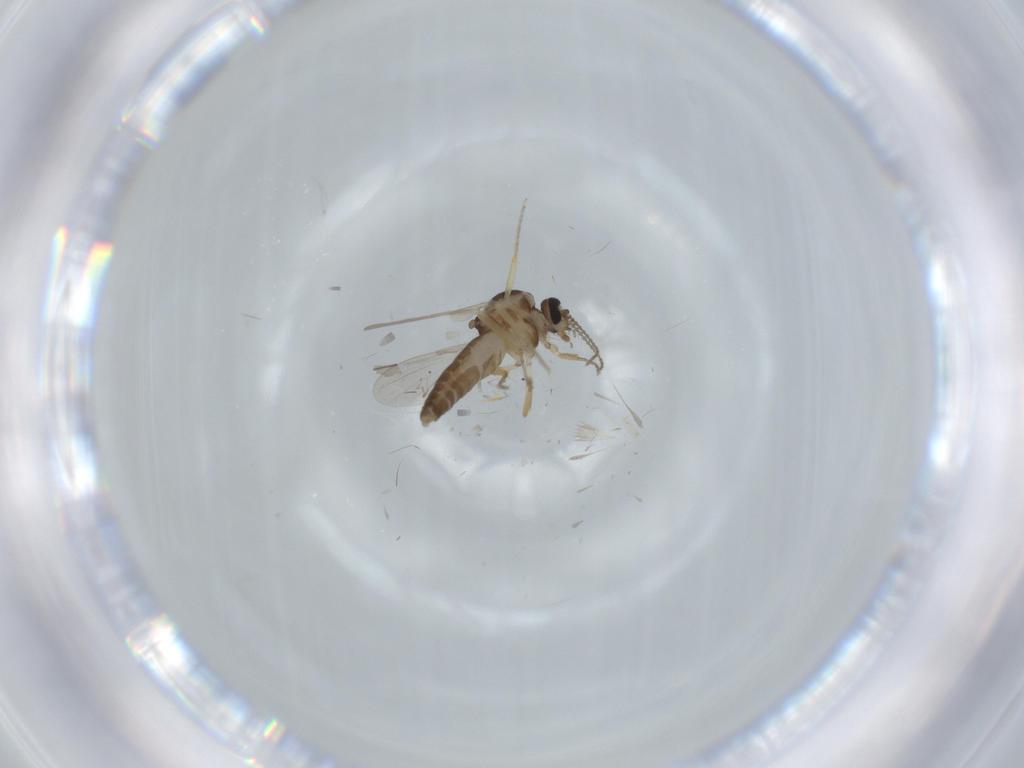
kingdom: Animalia
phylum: Arthropoda
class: Insecta
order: Diptera
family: Ceratopogonidae
